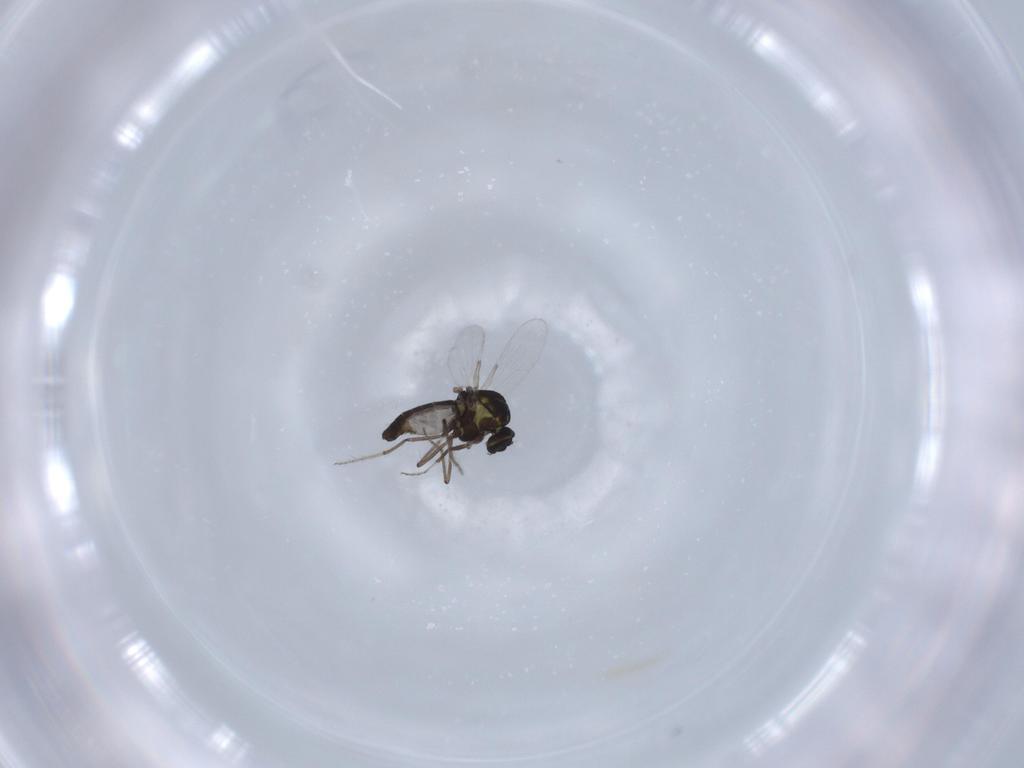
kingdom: Animalia
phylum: Arthropoda
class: Insecta
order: Diptera
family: Ceratopogonidae
